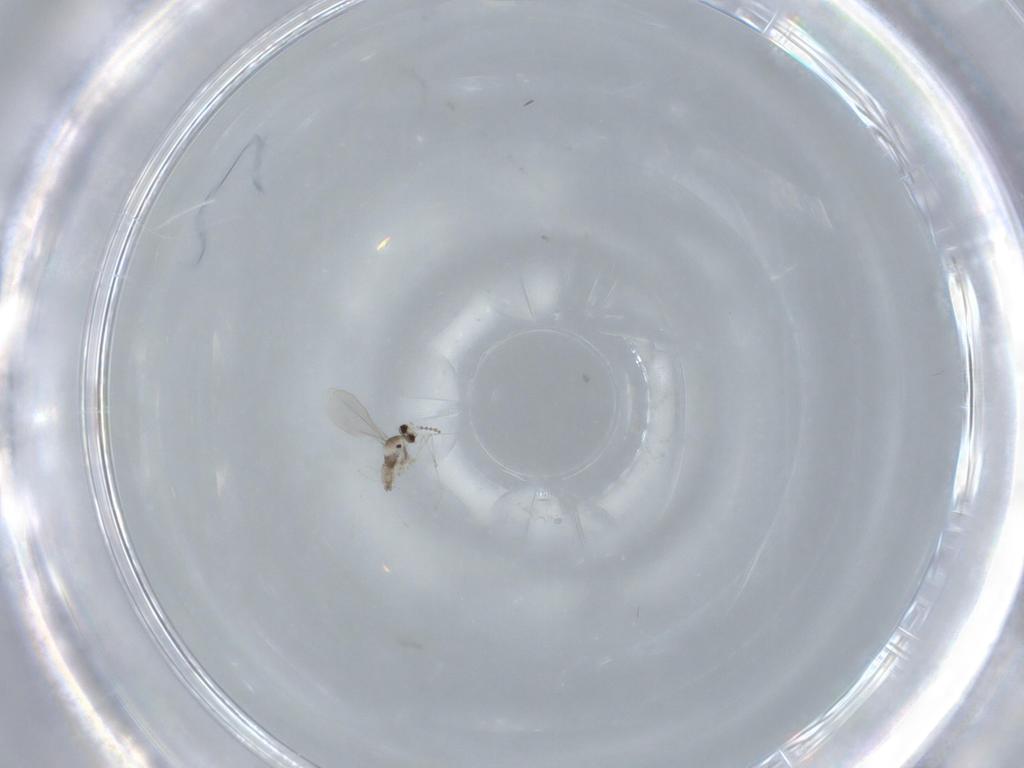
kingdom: Animalia
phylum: Arthropoda
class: Insecta
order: Diptera
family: Cecidomyiidae
